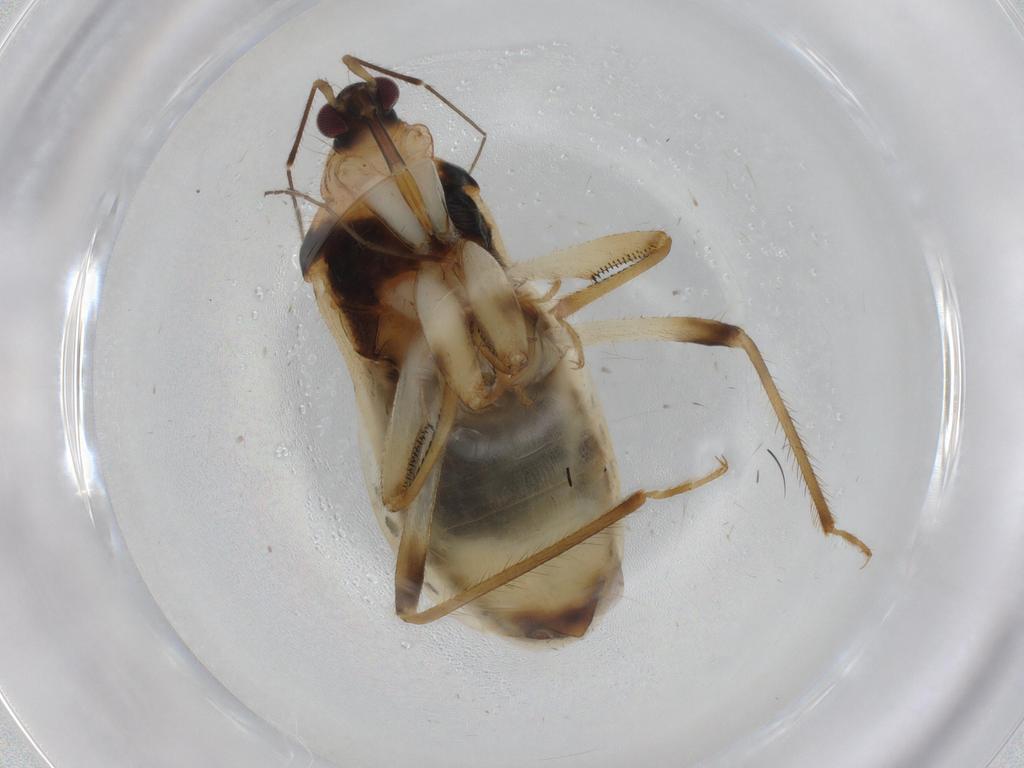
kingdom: Animalia
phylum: Arthropoda
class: Insecta
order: Hemiptera
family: Nabidae
